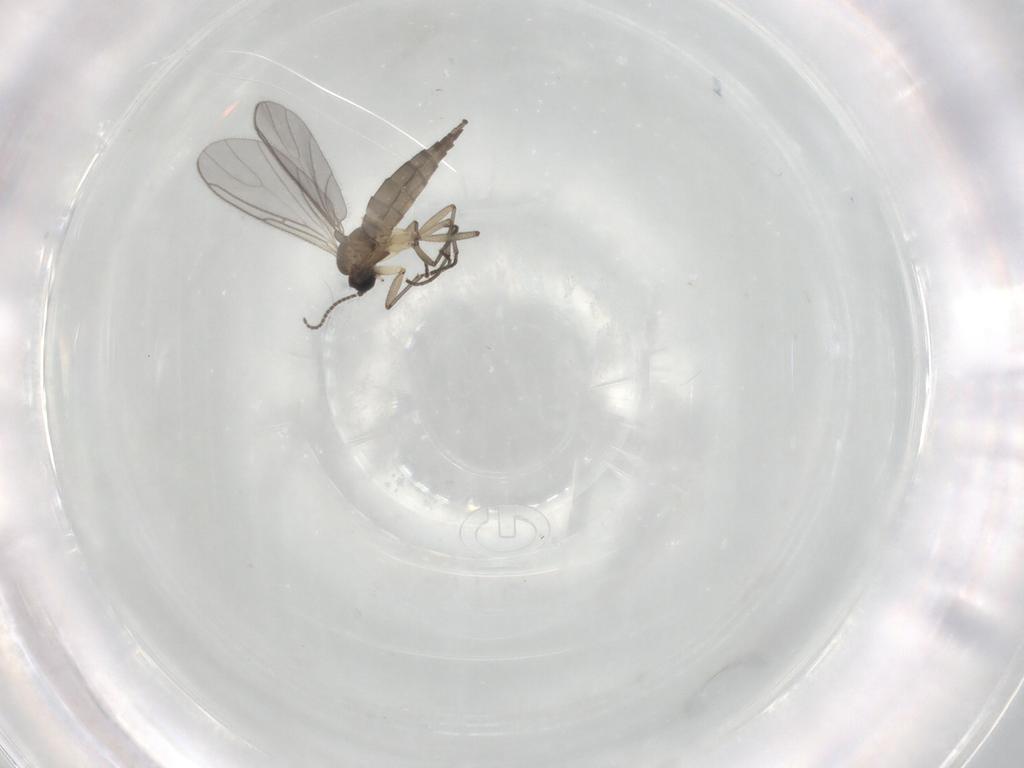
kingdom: Animalia
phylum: Arthropoda
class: Insecta
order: Diptera
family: Sciaridae
